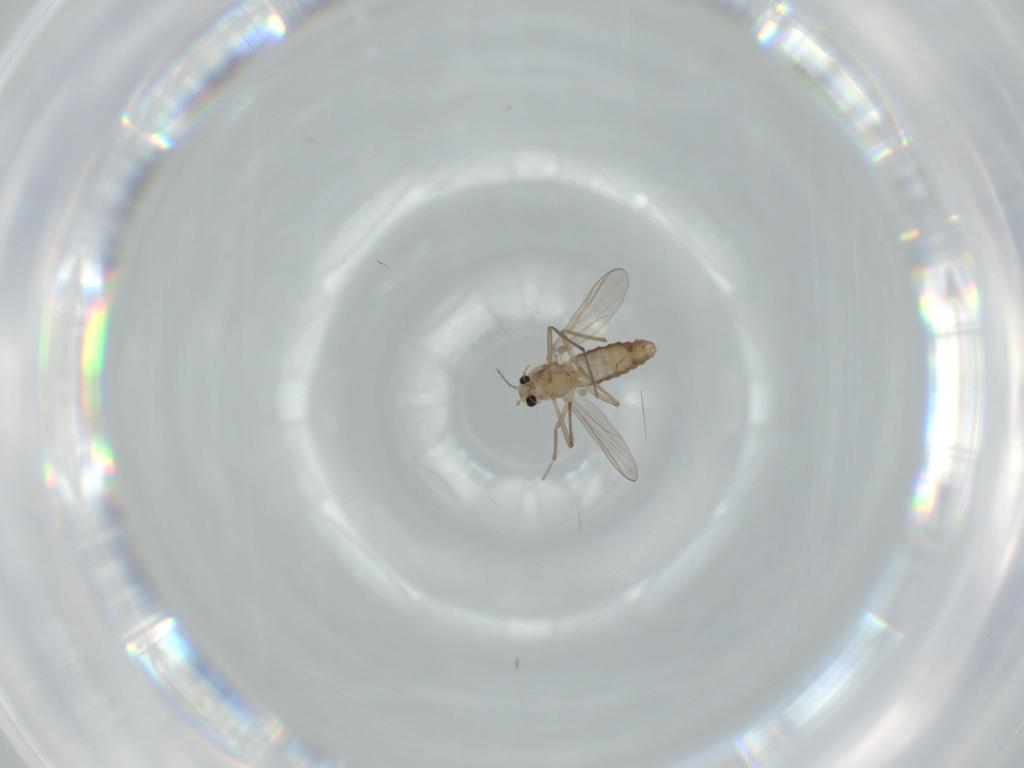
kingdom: Animalia
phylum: Arthropoda
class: Insecta
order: Diptera
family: Chironomidae
